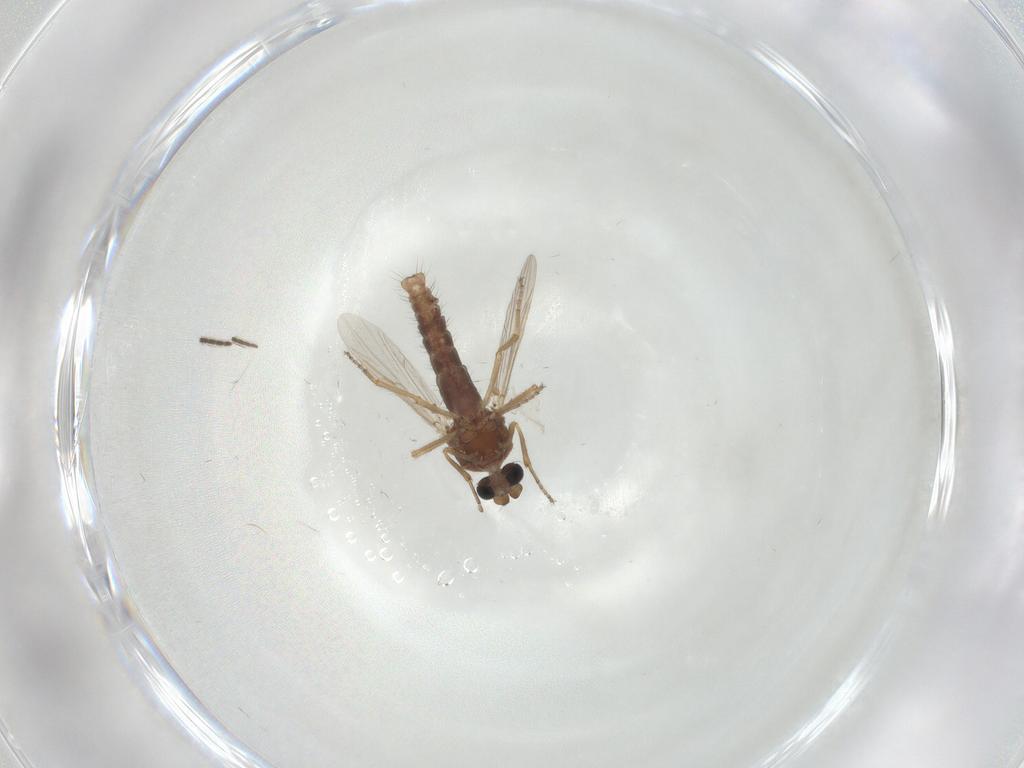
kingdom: Animalia
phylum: Arthropoda
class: Insecta
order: Diptera
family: Ceratopogonidae
